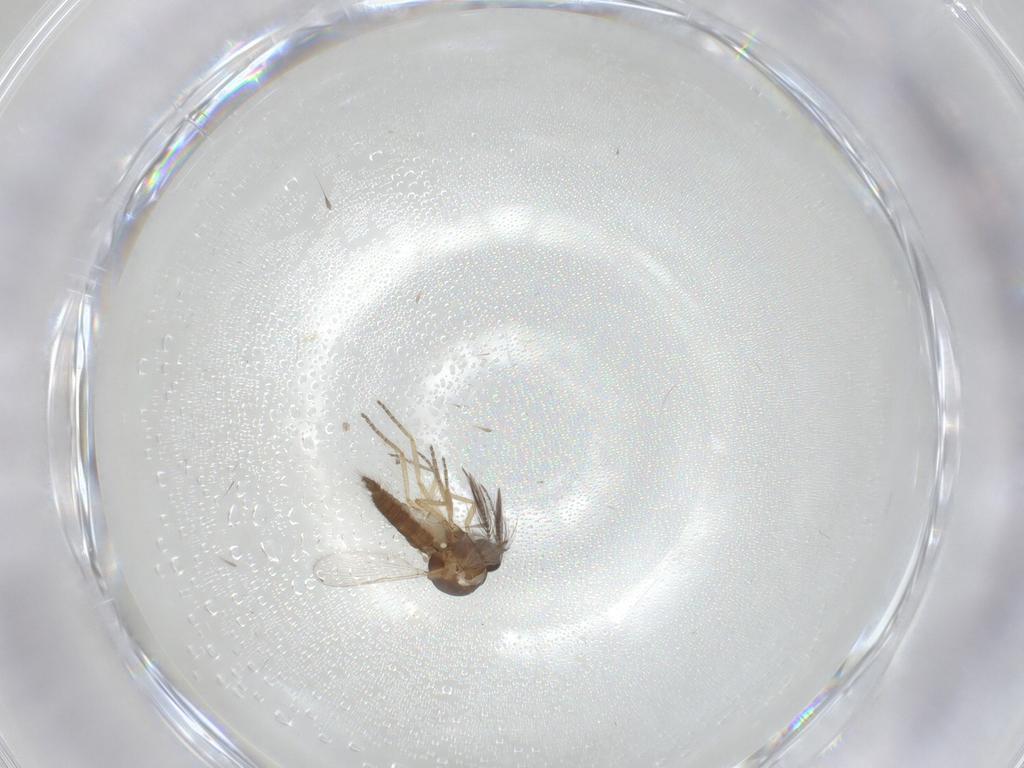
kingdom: Animalia
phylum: Arthropoda
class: Insecta
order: Diptera
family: Ceratopogonidae
